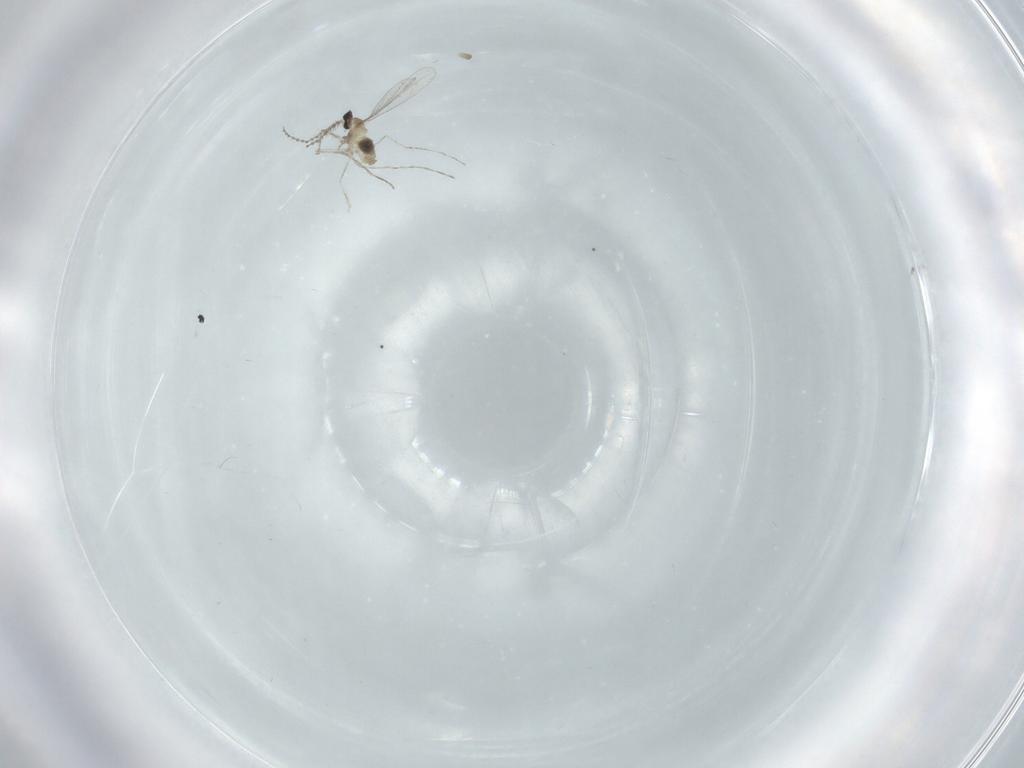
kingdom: Animalia
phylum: Arthropoda
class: Insecta
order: Diptera
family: Cecidomyiidae
